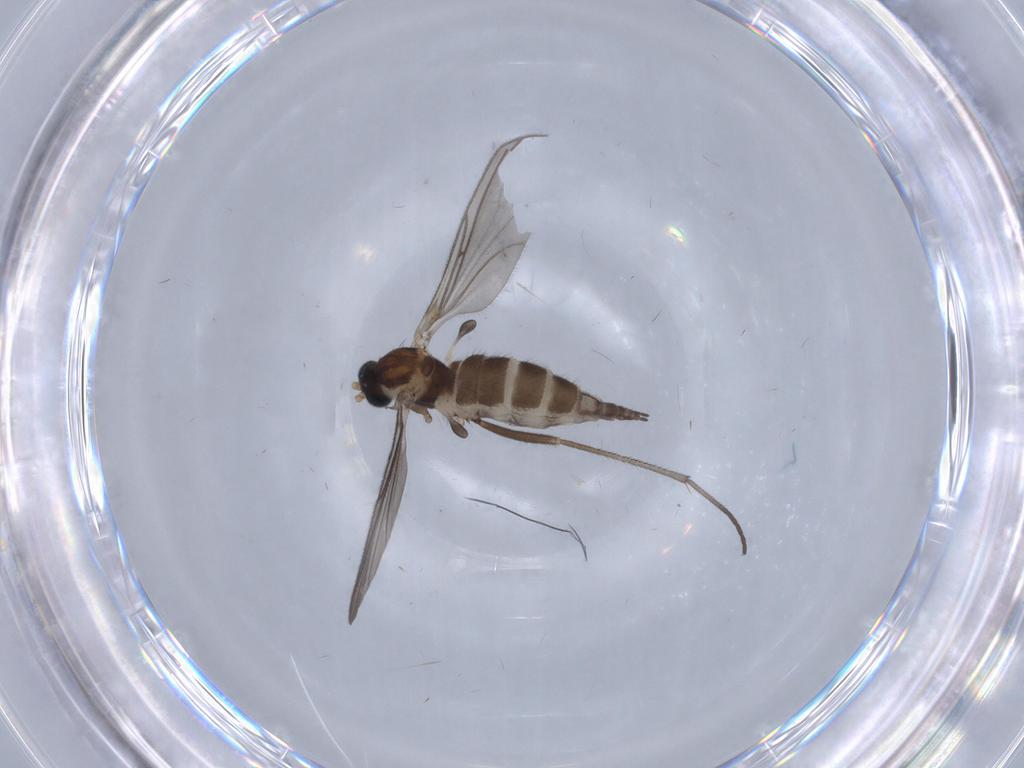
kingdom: Animalia
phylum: Arthropoda
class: Insecta
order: Diptera
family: Sciaridae
